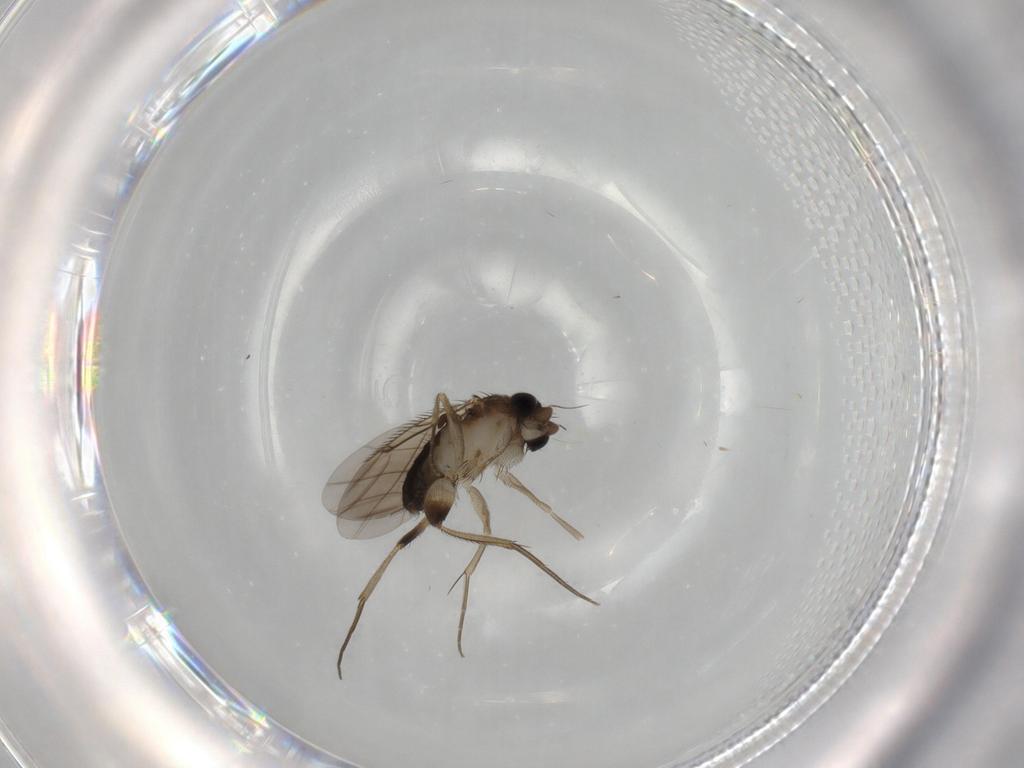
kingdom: Animalia
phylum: Arthropoda
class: Insecta
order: Diptera
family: Phoridae
